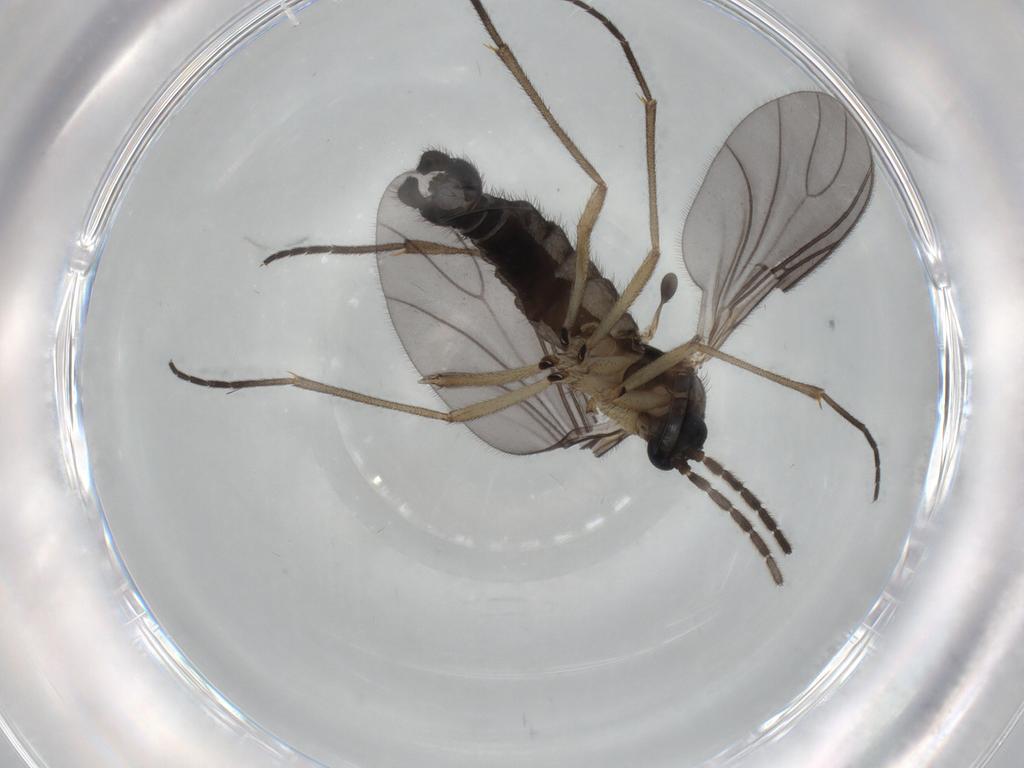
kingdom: Animalia
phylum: Arthropoda
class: Insecta
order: Diptera
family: Sciaridae
